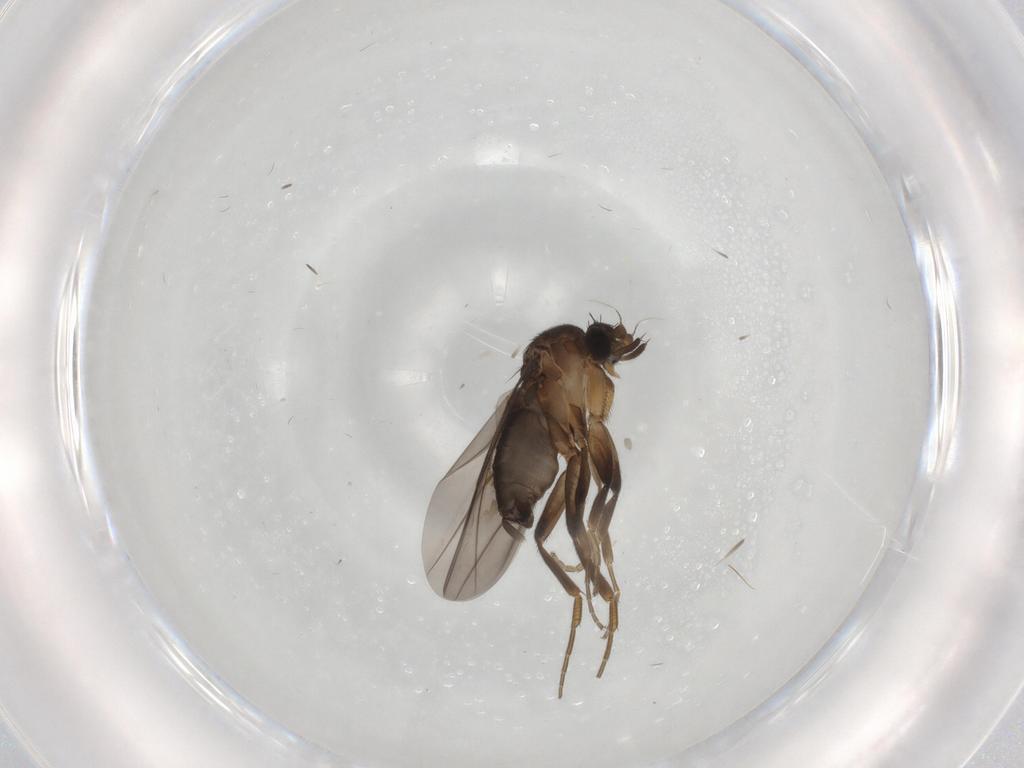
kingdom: Animalia
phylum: Arthropoda
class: Insecta
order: Diptera
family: Phoridae
